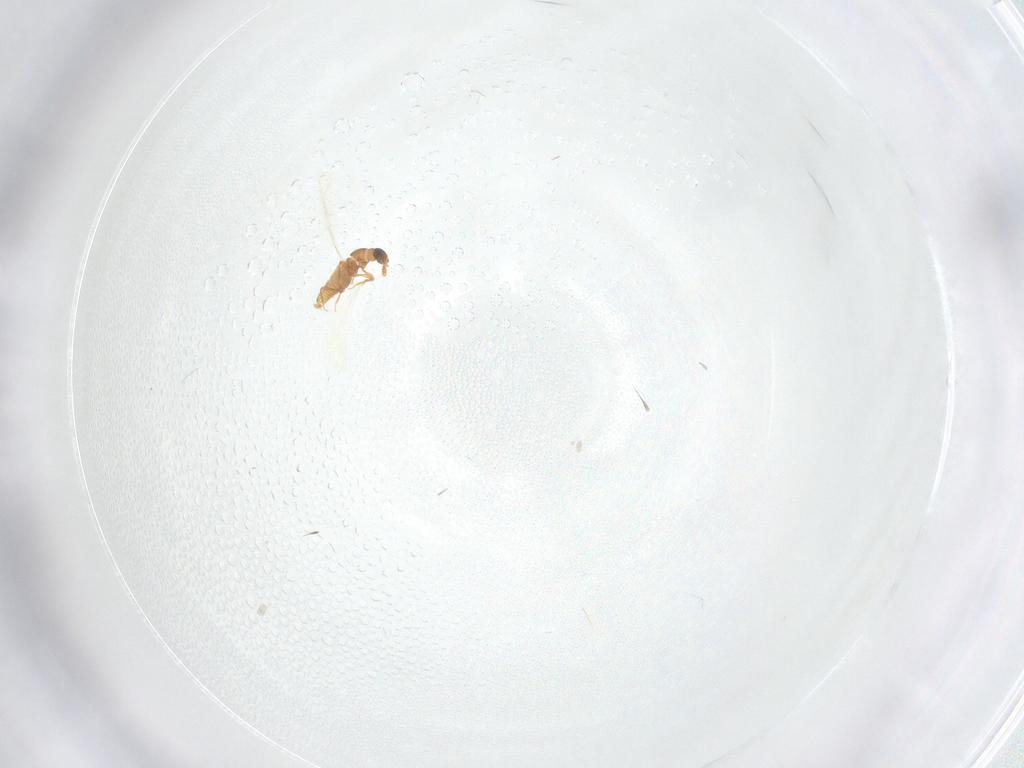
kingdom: Animalia
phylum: Arthropoda
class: Insecta
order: Coleoptera
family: Staphylinidae
